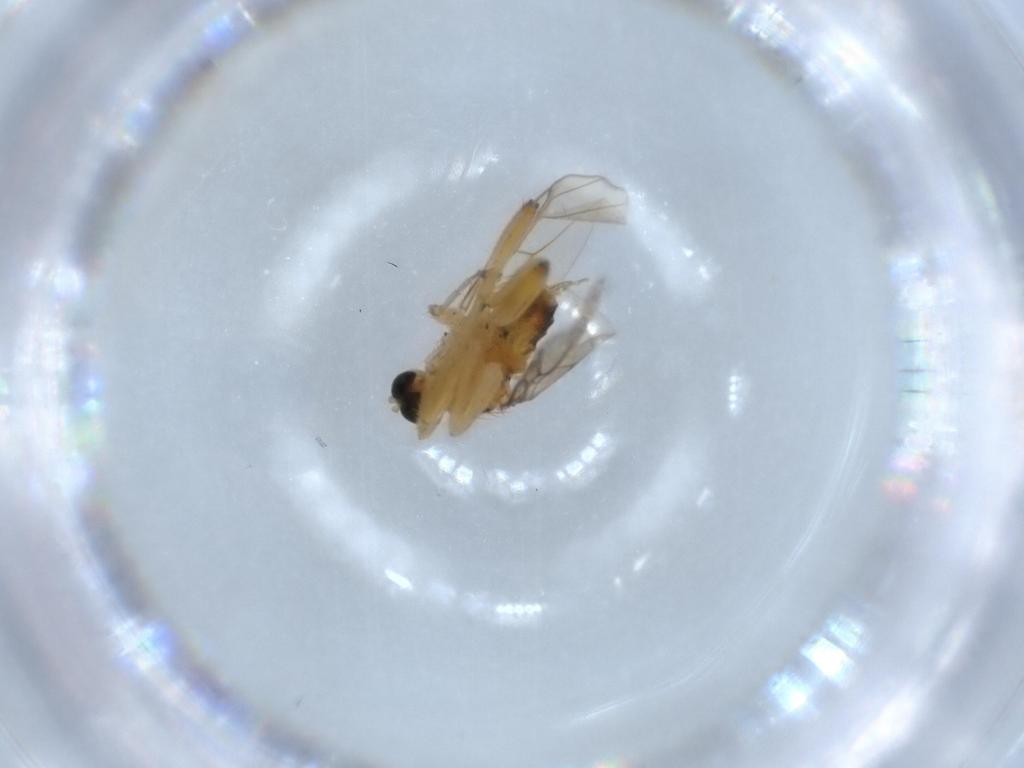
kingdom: Animalia
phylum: Arthropoda
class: Insecta
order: Diptera
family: Hybotidae
